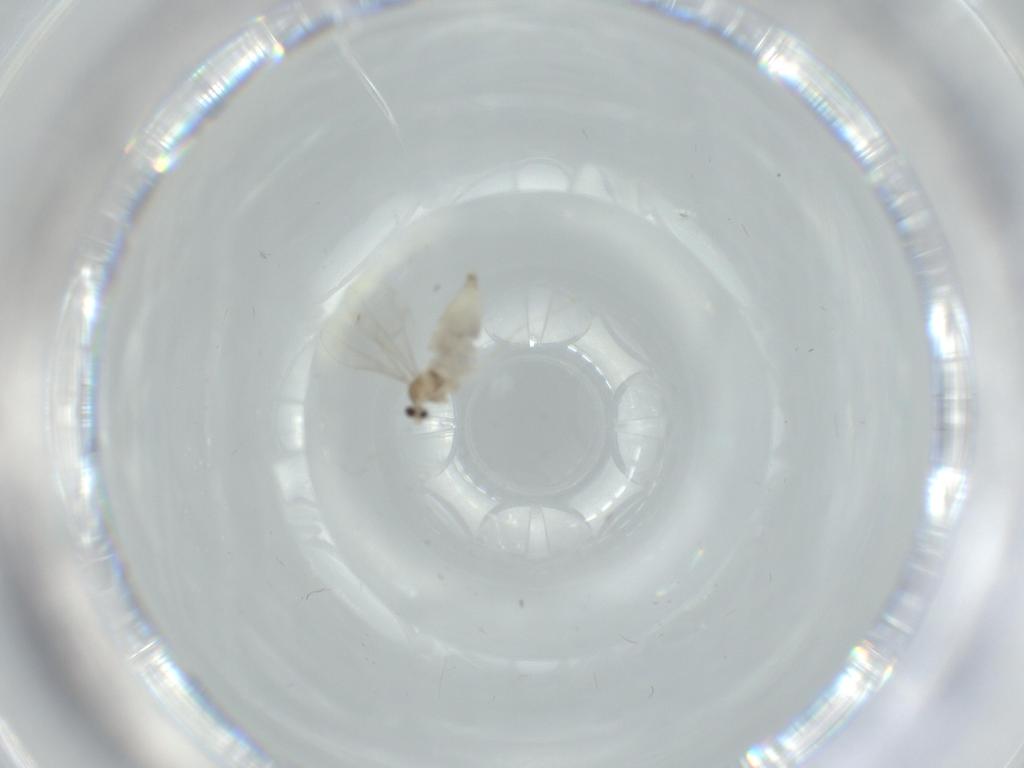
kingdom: Animalia
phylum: Arthropoda
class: Insecta
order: Diptera
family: Cecidomyiidae
